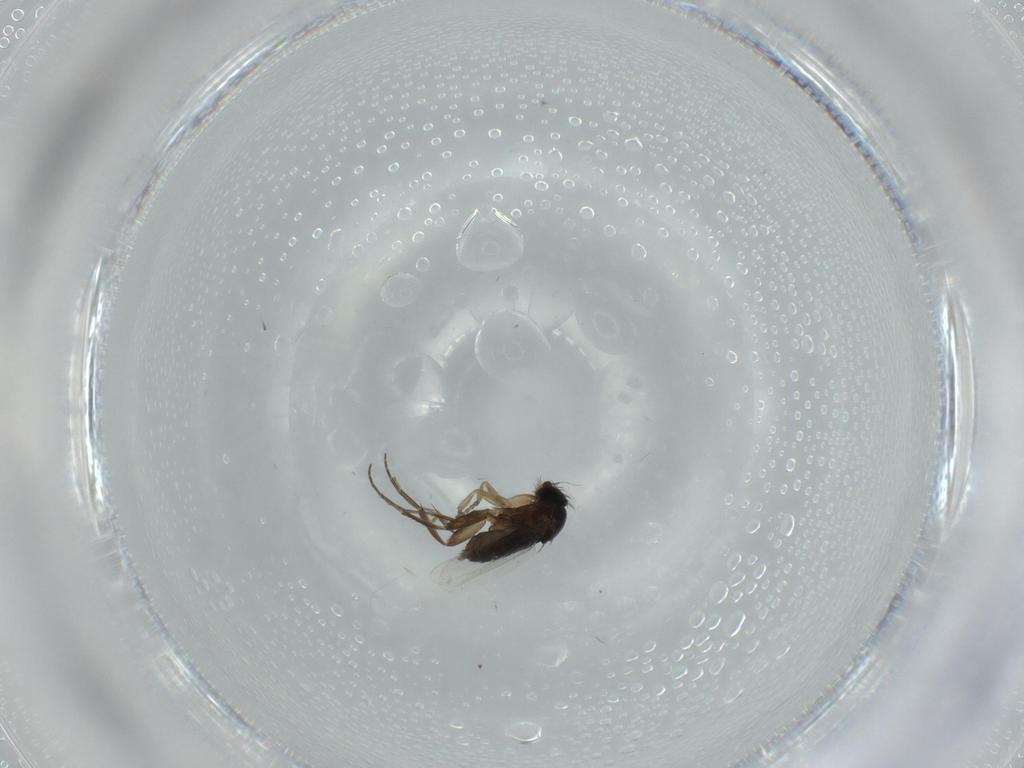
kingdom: Animalia
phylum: Arthropoda
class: Insecta
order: Diptera
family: Phoridae
